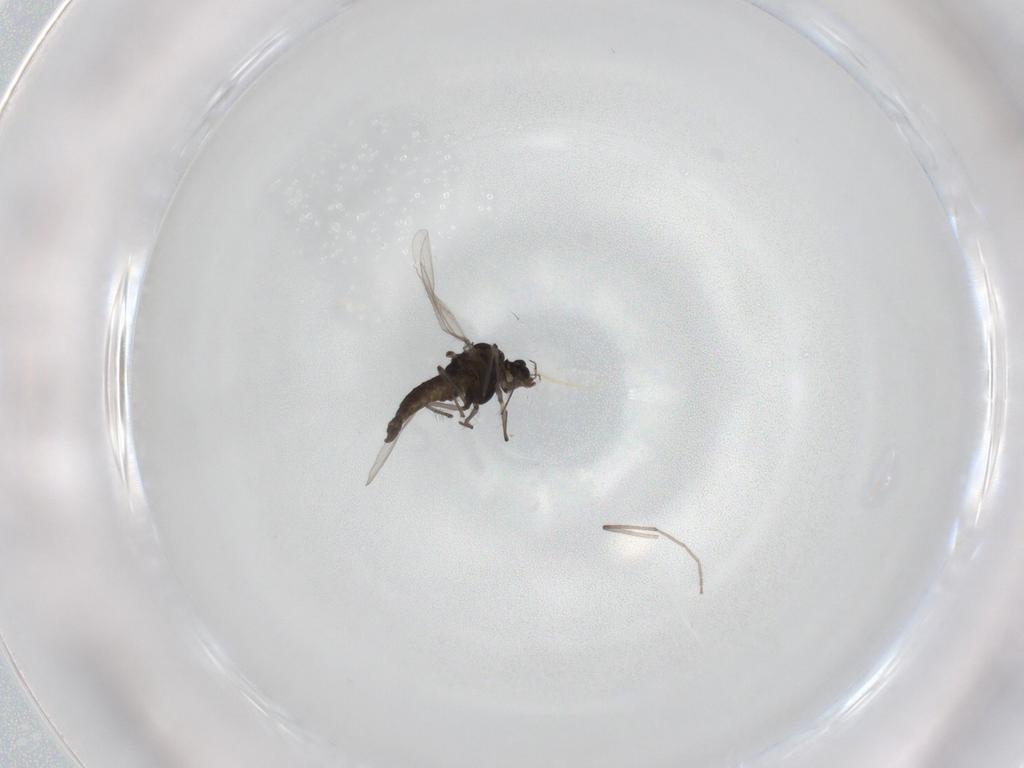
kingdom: Animalia
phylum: Arthropoda
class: Insecta
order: Diptera
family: Chironomidae
